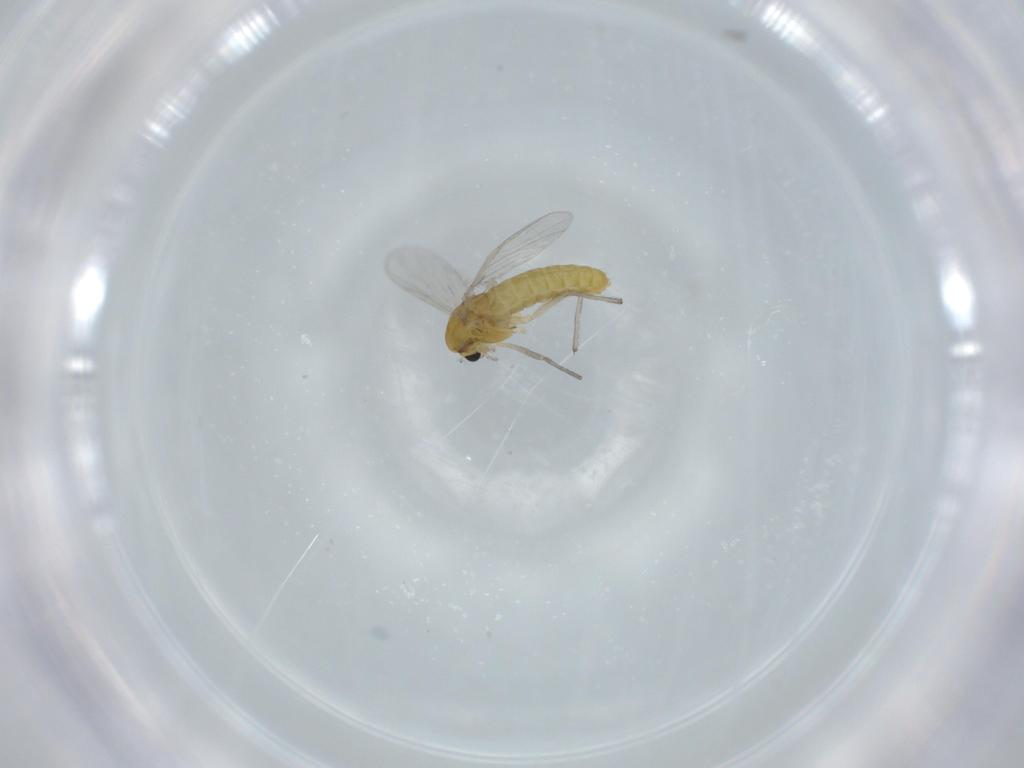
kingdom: Animalia
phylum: Arthropoda
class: Insecta
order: Diptera
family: Chironomidae
